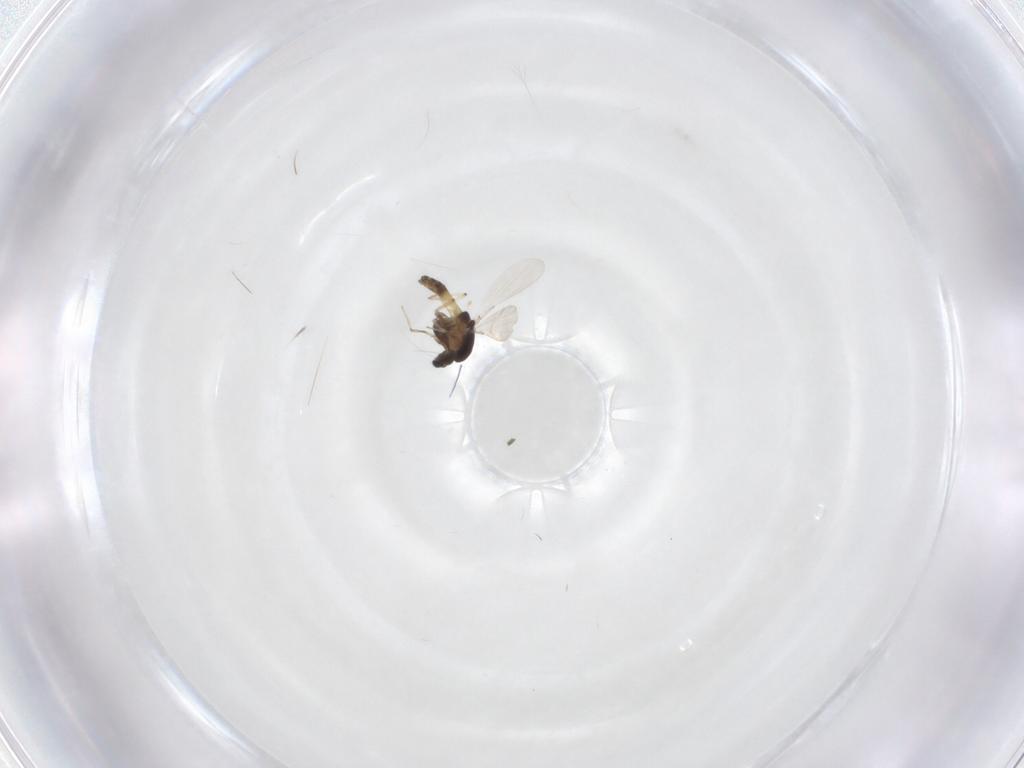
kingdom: Animalia
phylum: Arthropoda
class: Insecta
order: Diptera
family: Chironomidae
